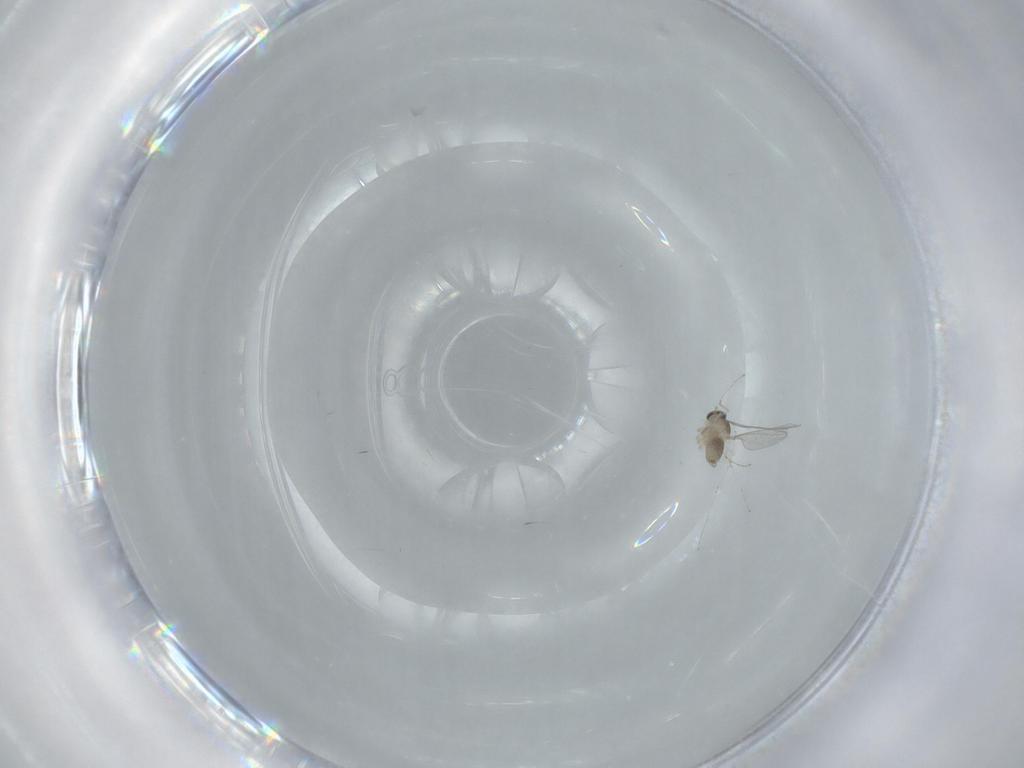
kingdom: Animalia
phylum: Arthropoda
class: Insecta
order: Diptera
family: Cecidomyiidae
